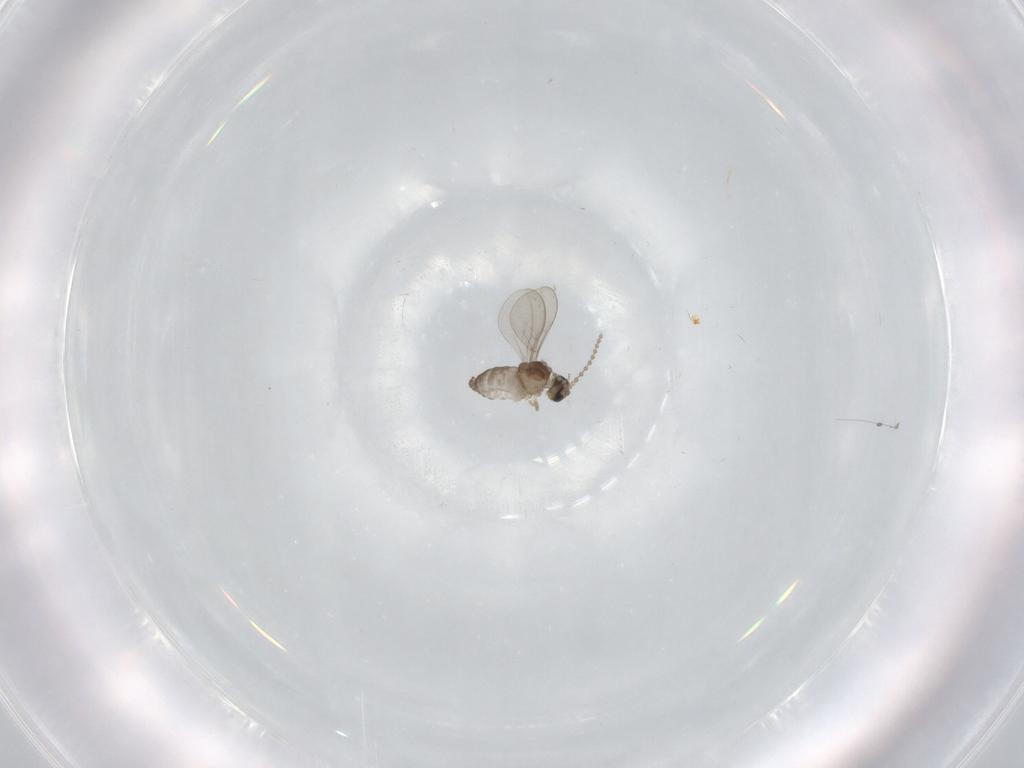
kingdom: Animalia
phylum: Arthropoda
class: Insecta
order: Diptera
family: Cecidomyiidae
